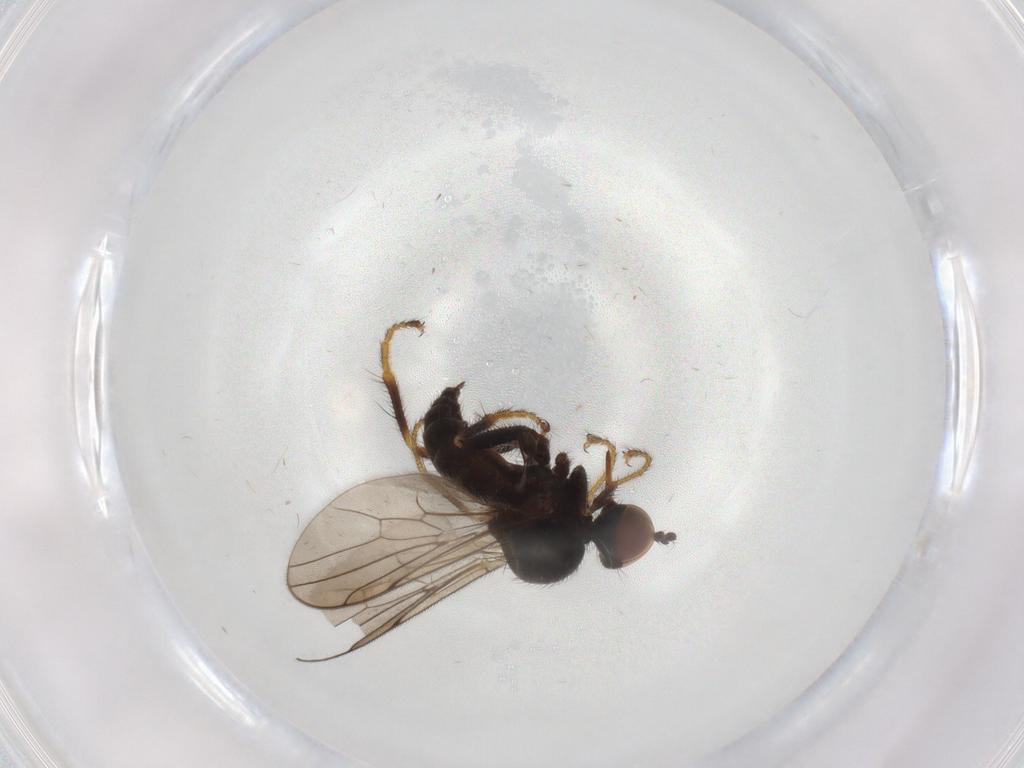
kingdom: Animalia
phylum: Arthropoda
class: Insecta
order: Diptera
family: Hybotidae
